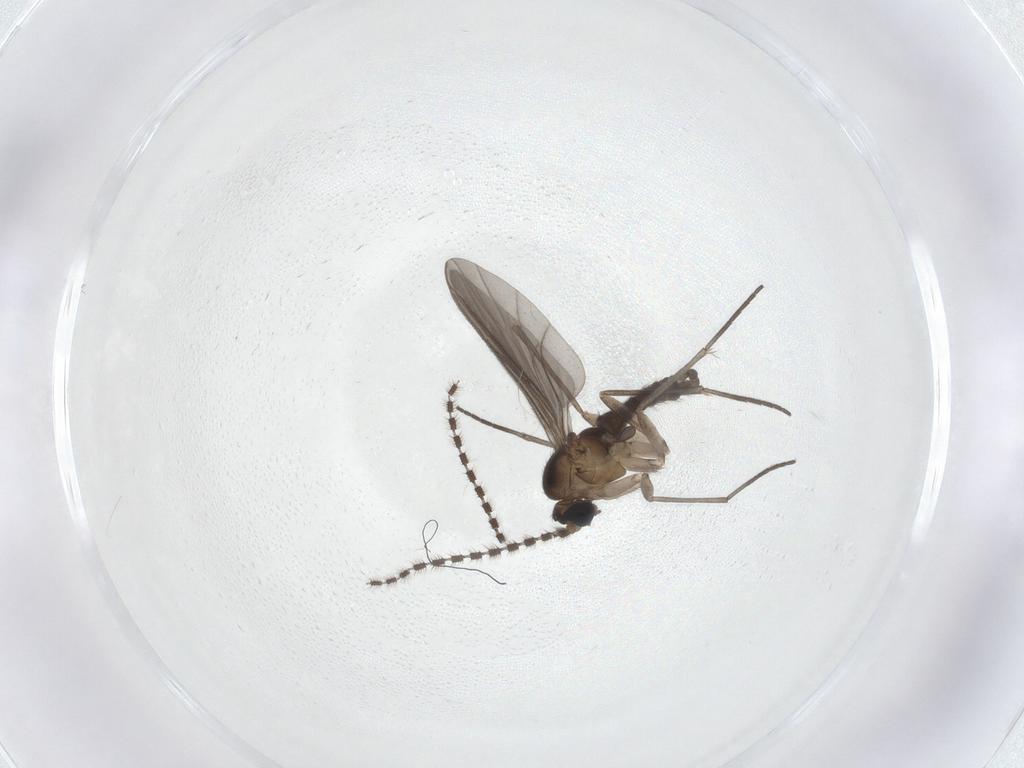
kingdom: Animalia
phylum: Arthropoda
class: Insecta
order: Diptera
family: Sciaridae
